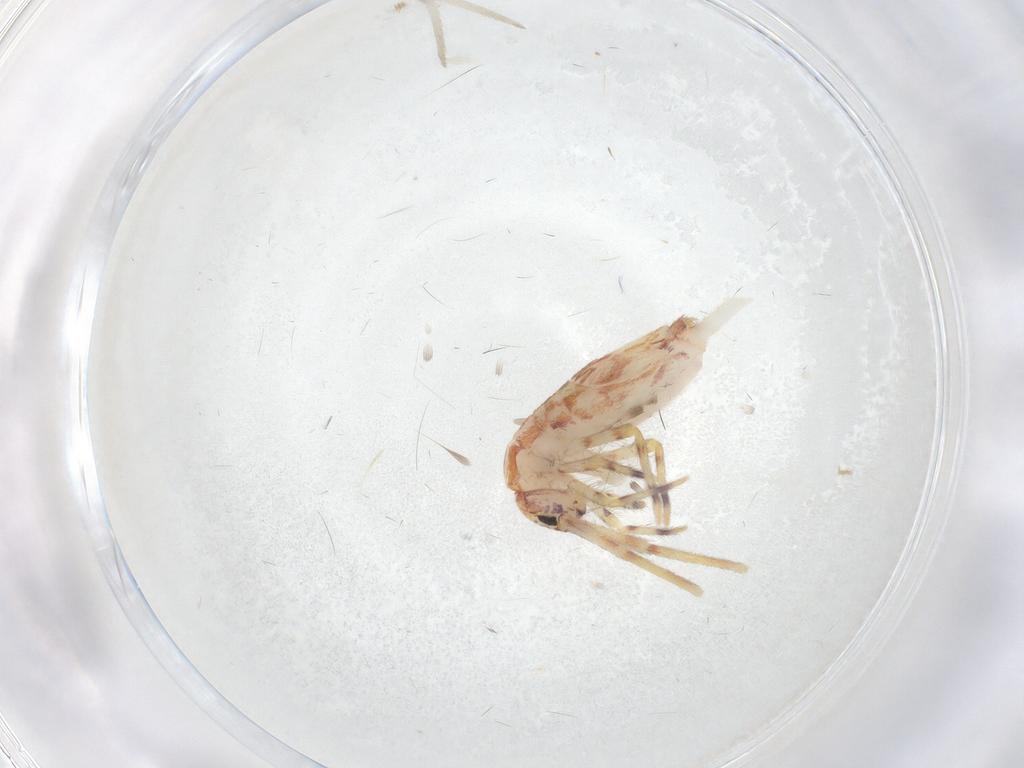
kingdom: Animalia
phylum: Arthropoda
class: Collembola
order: Entomobryomorpha
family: Entomobryidae
